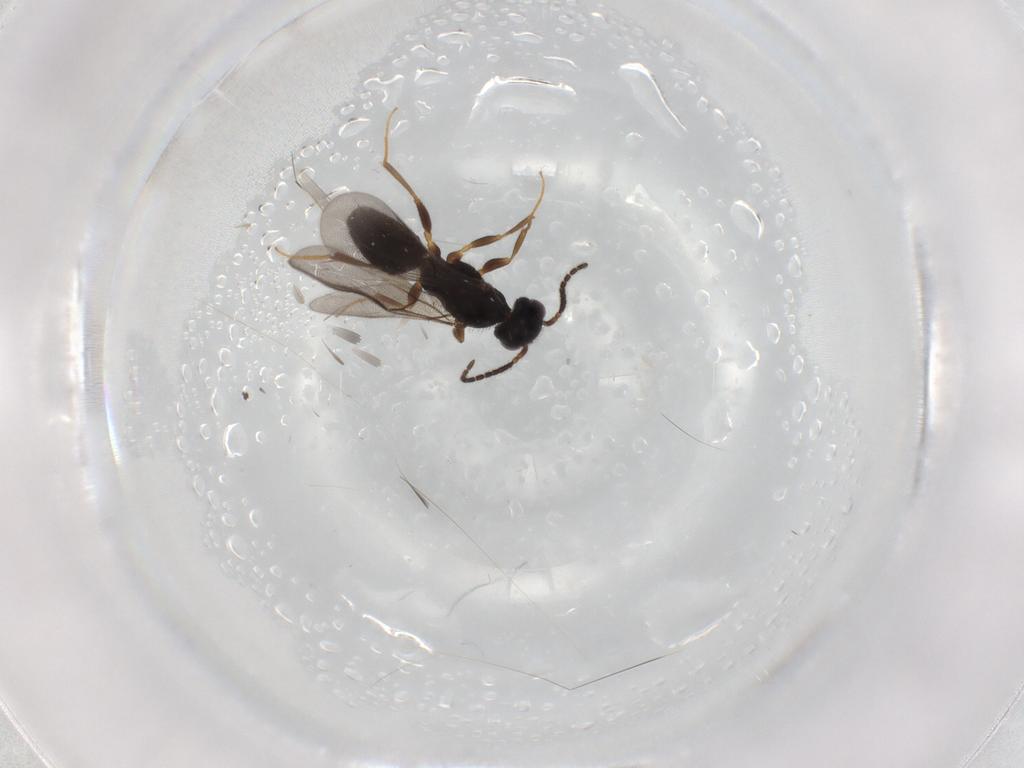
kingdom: Animalia
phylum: Arthropoda
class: Insecta
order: Hymenoptera
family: Bethylidae
